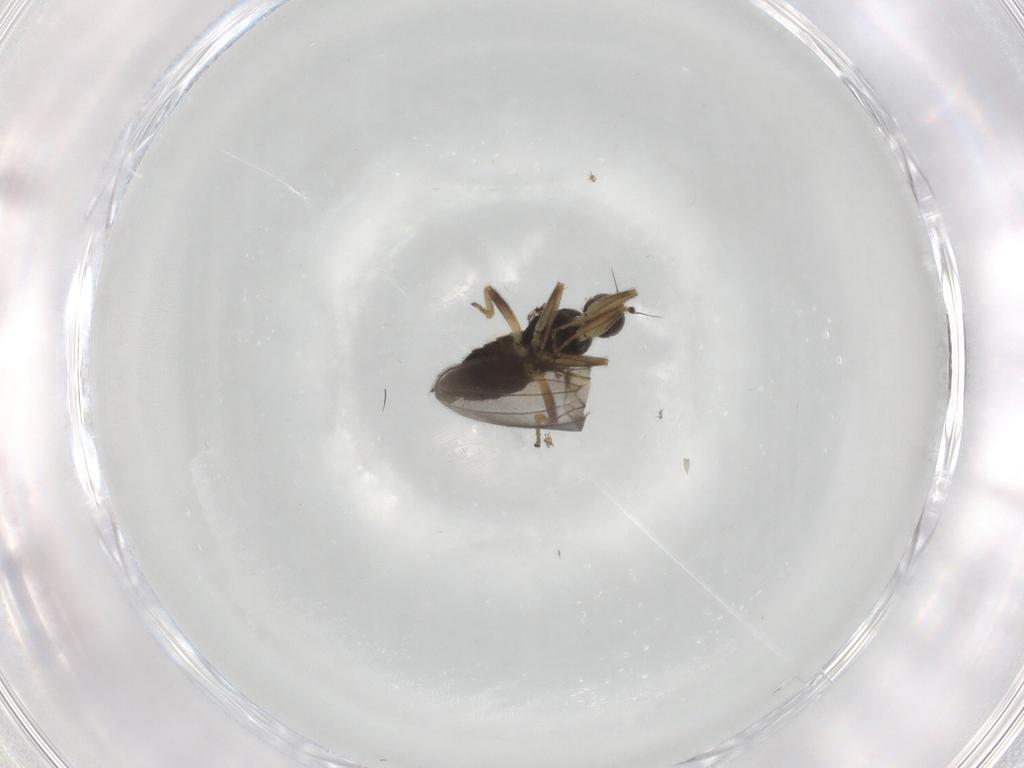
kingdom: Animalia
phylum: Arthropoda
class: Insecta
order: Diptera
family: Hybotidae
